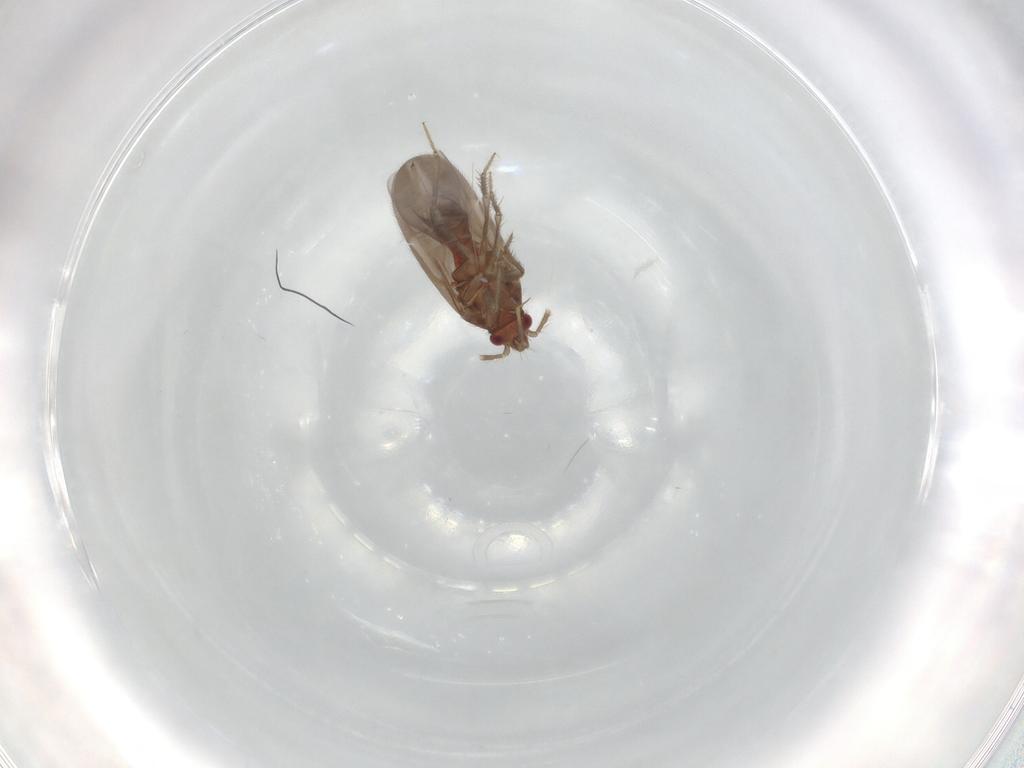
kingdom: Animalia
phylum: Arthropoda
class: Insecta
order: Hemiptera
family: Ceratocombidae
